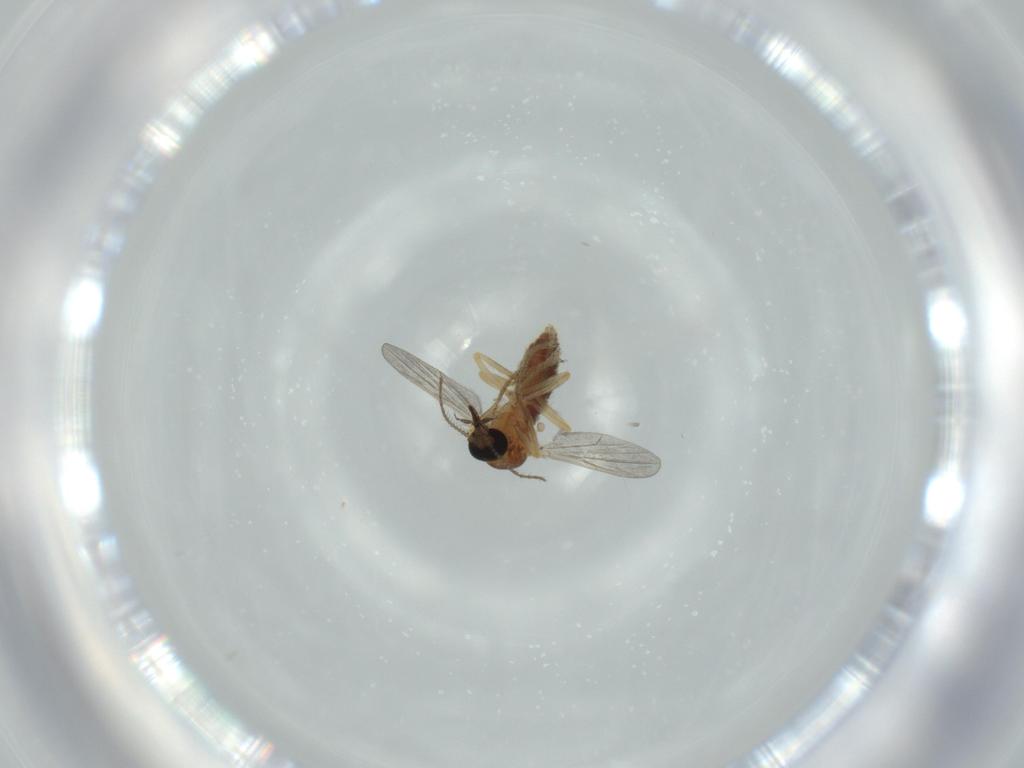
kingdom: Animalia
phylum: Arthropoda
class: Insecta
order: Diptera
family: Ceratopogonidae
